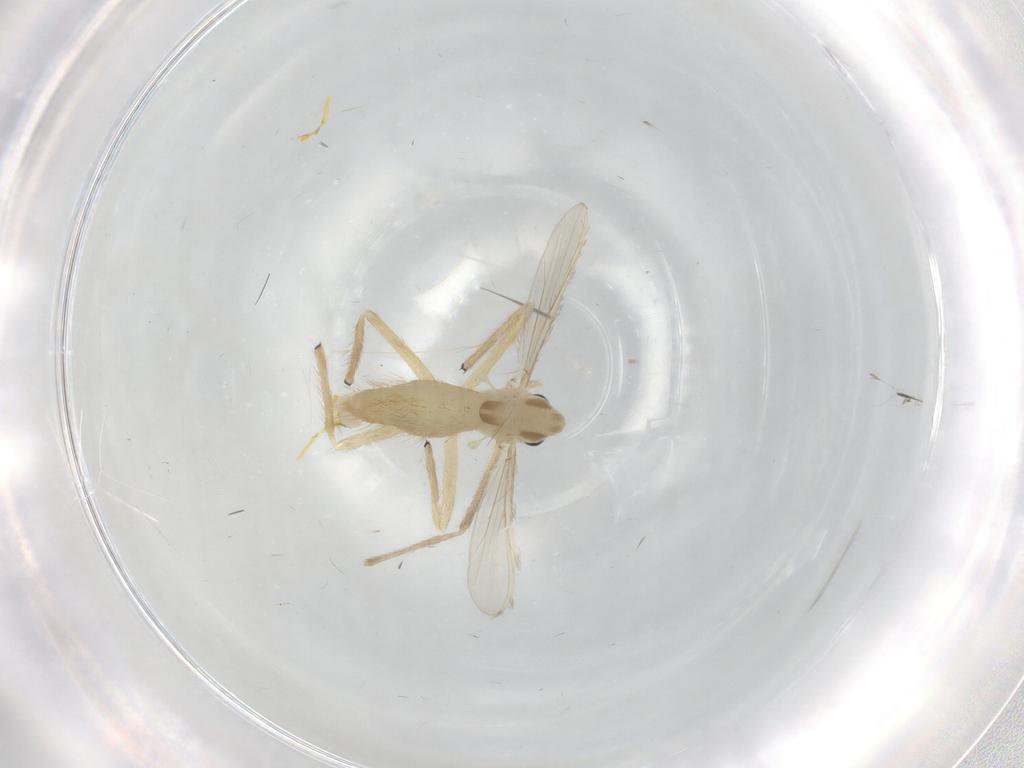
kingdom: Animalia
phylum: Arthropoda
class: Insecta
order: Diptera
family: Chironomidae
